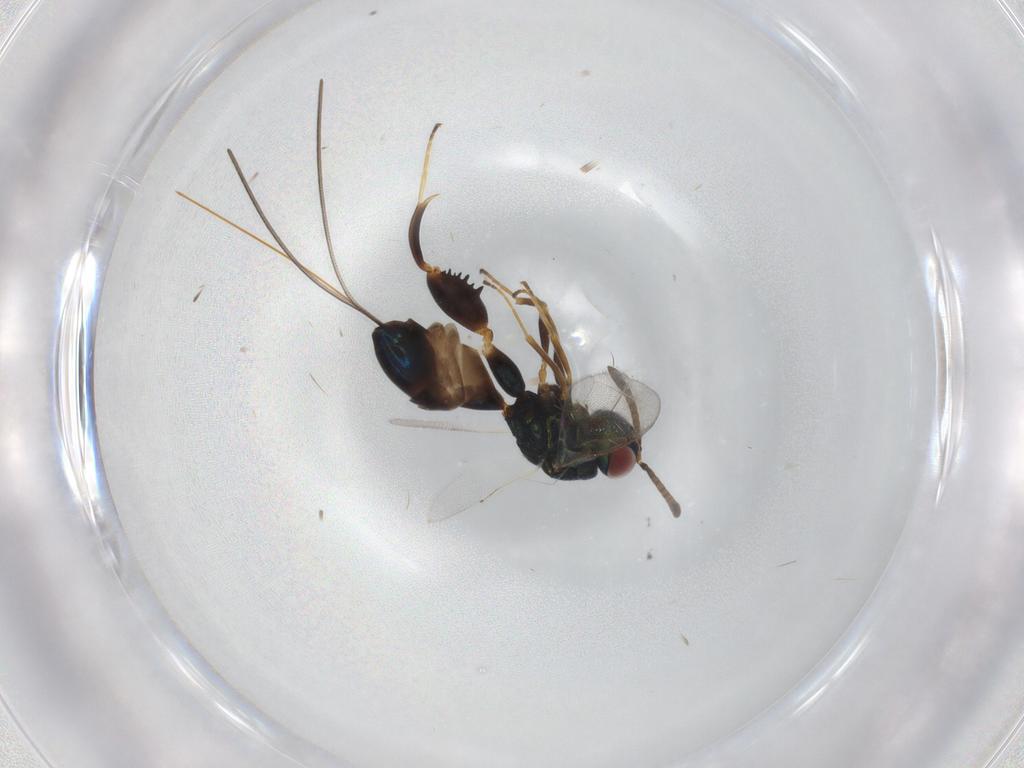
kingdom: Animalia
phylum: Arthropoda
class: Insecta
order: Hymenoptera
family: Torymidae
